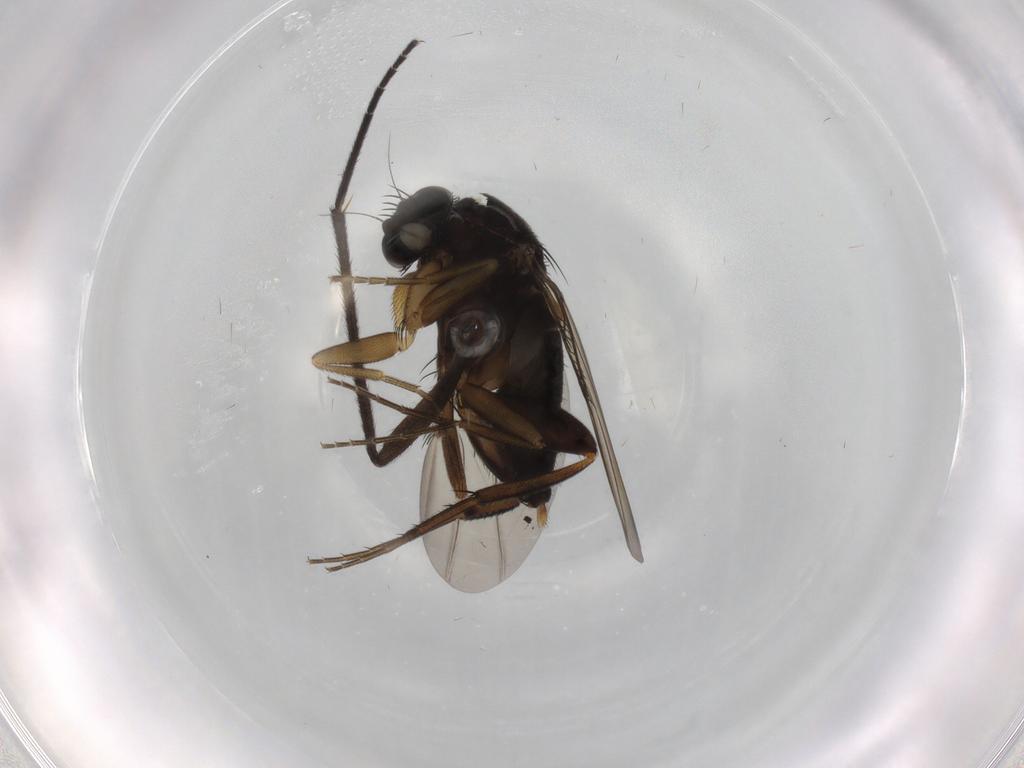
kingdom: Animalia
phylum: Arthropoda
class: Insecta
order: Diptera
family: Phoridae
